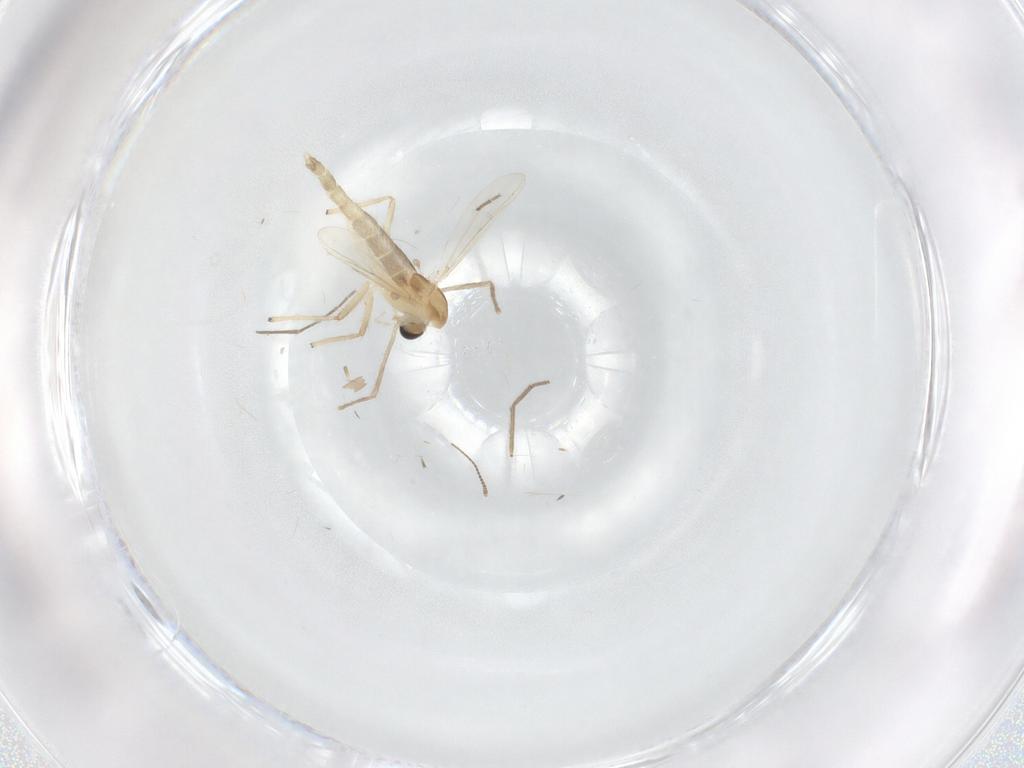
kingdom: Animalia
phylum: Arthropoda
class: Insecta
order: Diptera
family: Chironomidae
